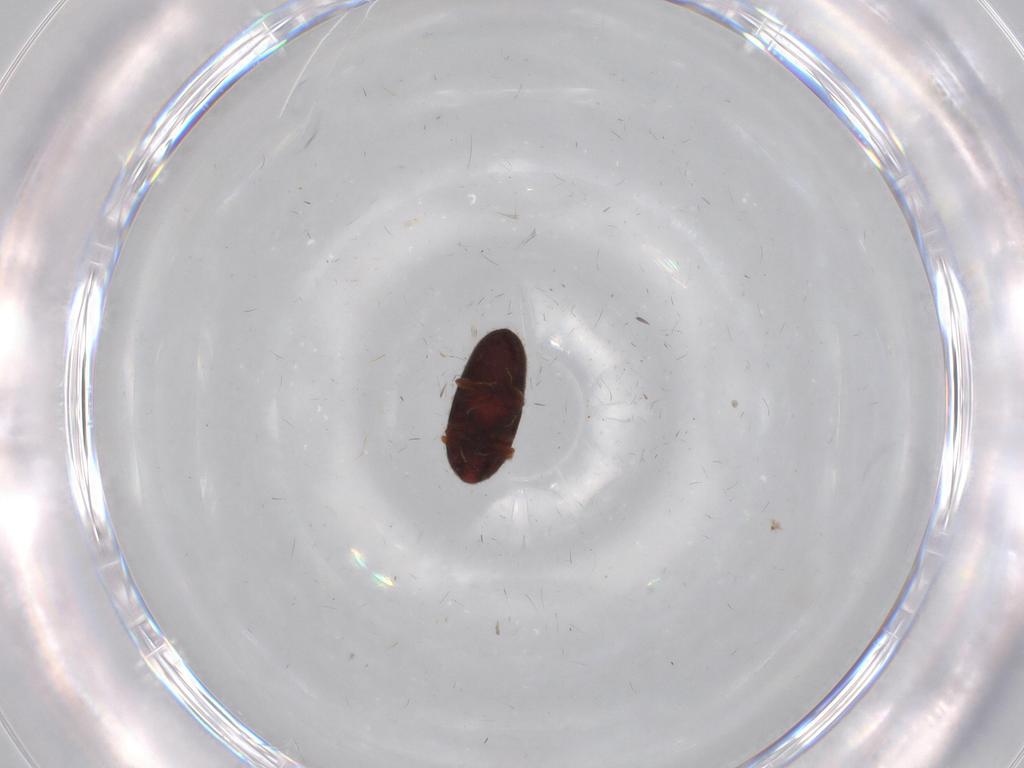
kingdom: Animalia
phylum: Arthropoda
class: Insecta
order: Coleoptera
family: Throscidae
